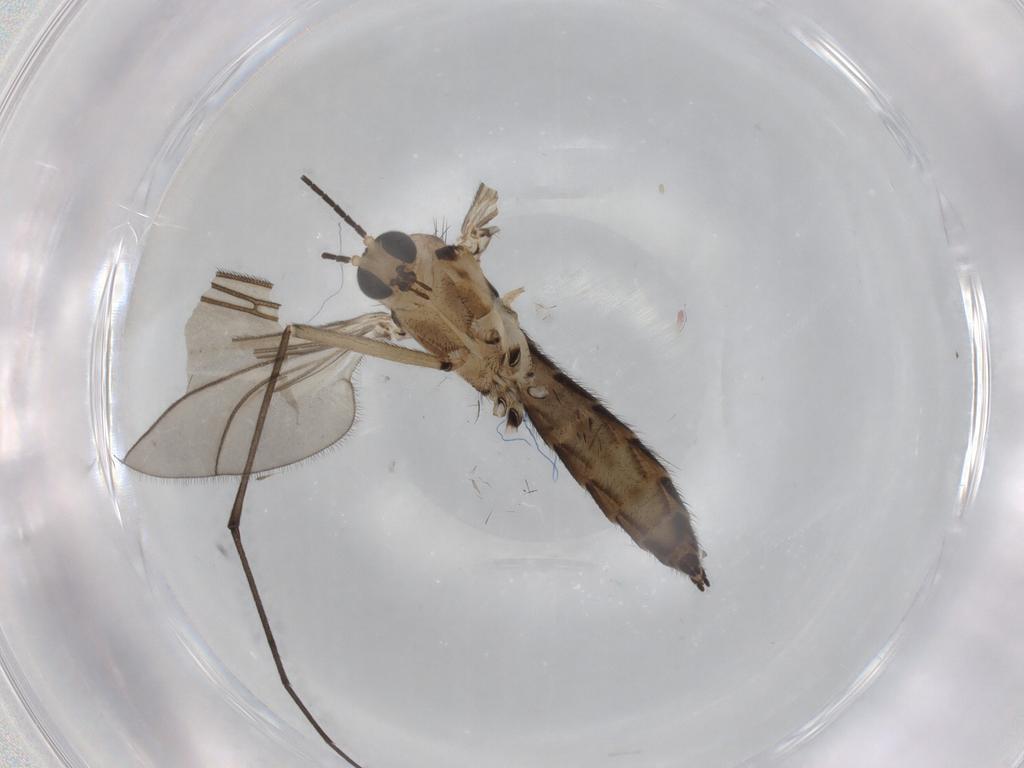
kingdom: Animalia
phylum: Arthropoda
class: Insecta
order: Diptera
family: Sciaridae
